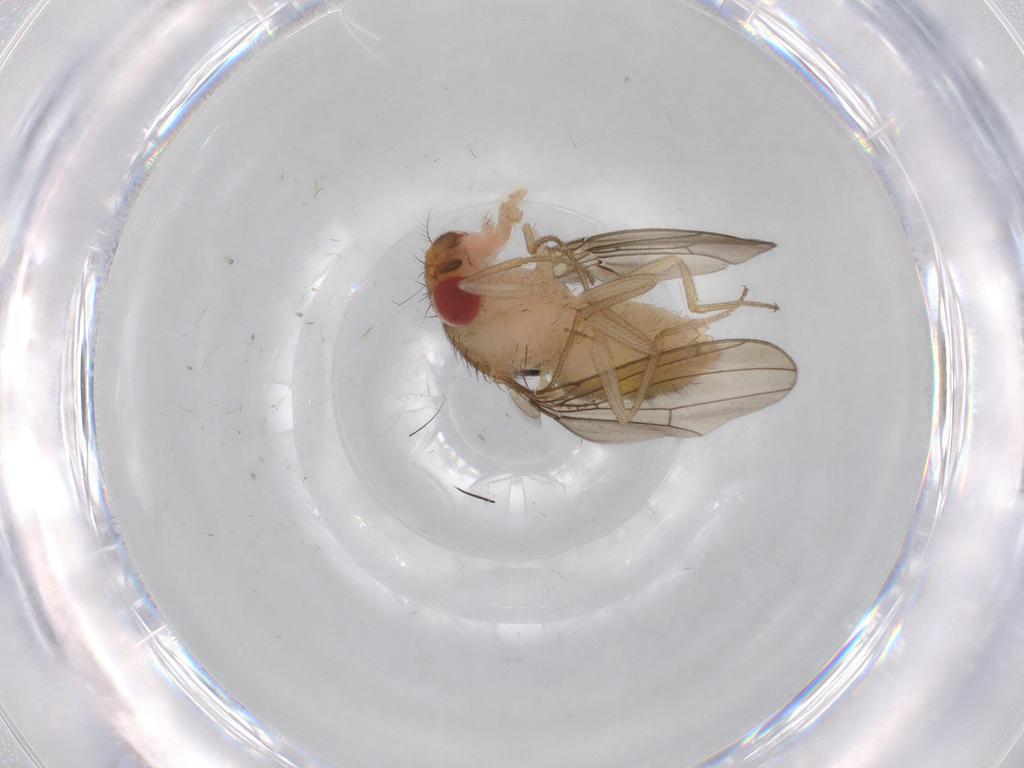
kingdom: Animalia
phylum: Arthropoda
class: Insecta
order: Diptera
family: Drosophilidae
